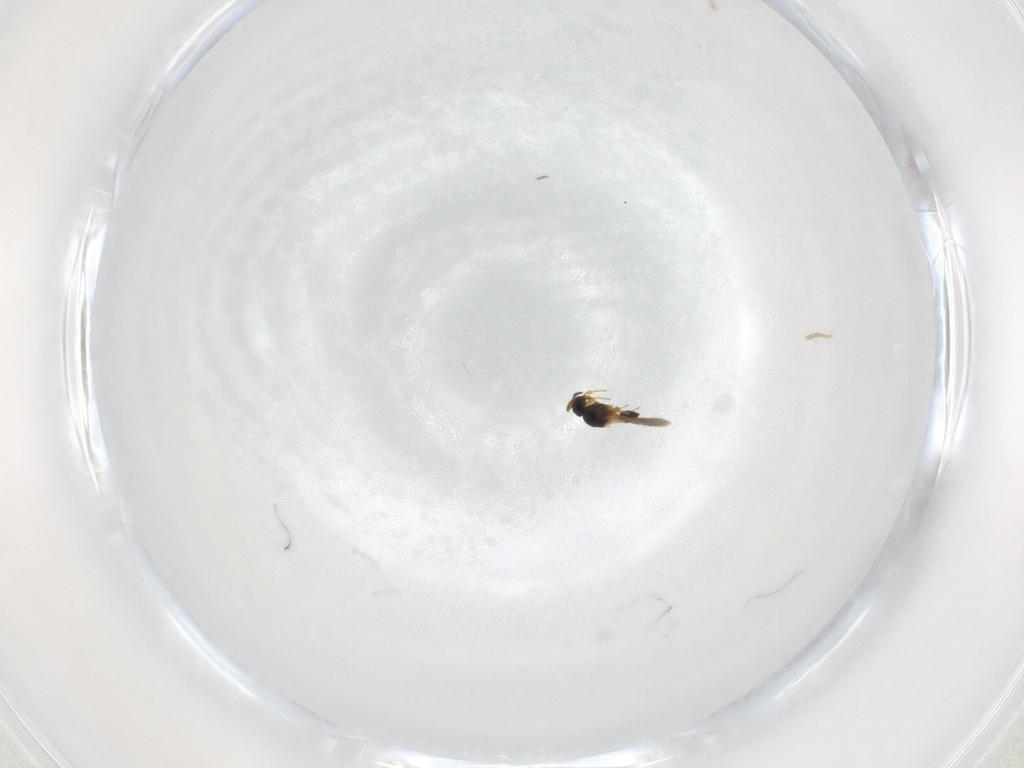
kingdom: Animalia
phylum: Arthropoda
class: Insecta
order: Hymenoptera
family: Platygastridae
